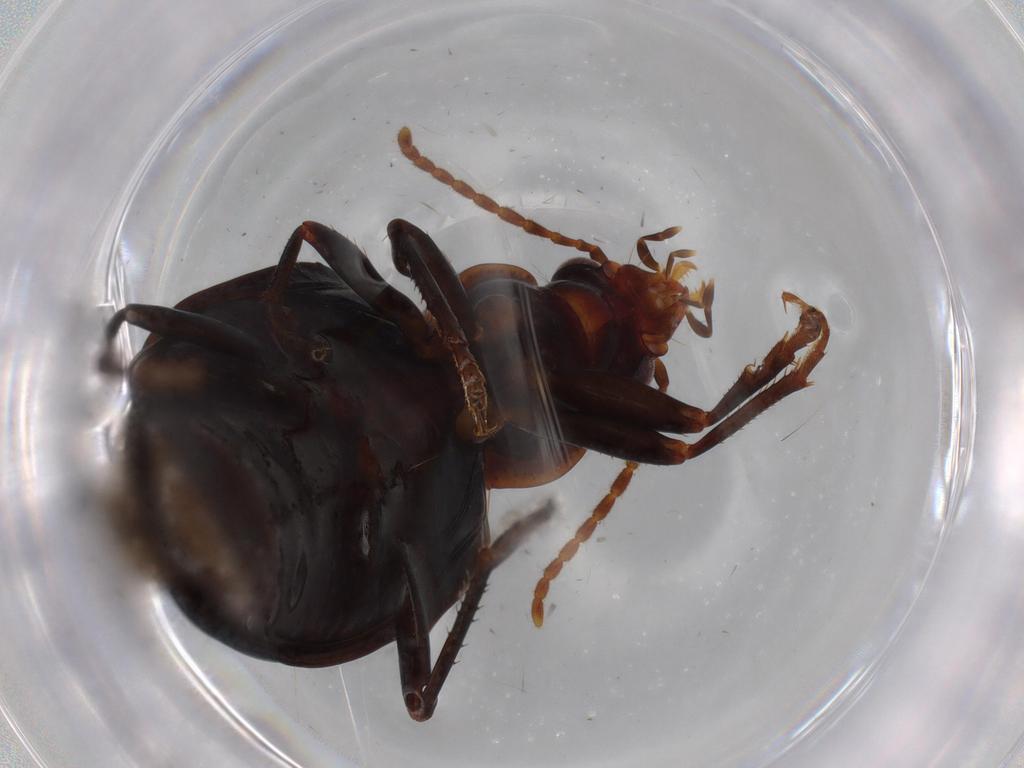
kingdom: Animalia
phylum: Arthropoda
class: Insecta
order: Coleoptera
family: Carabidae
